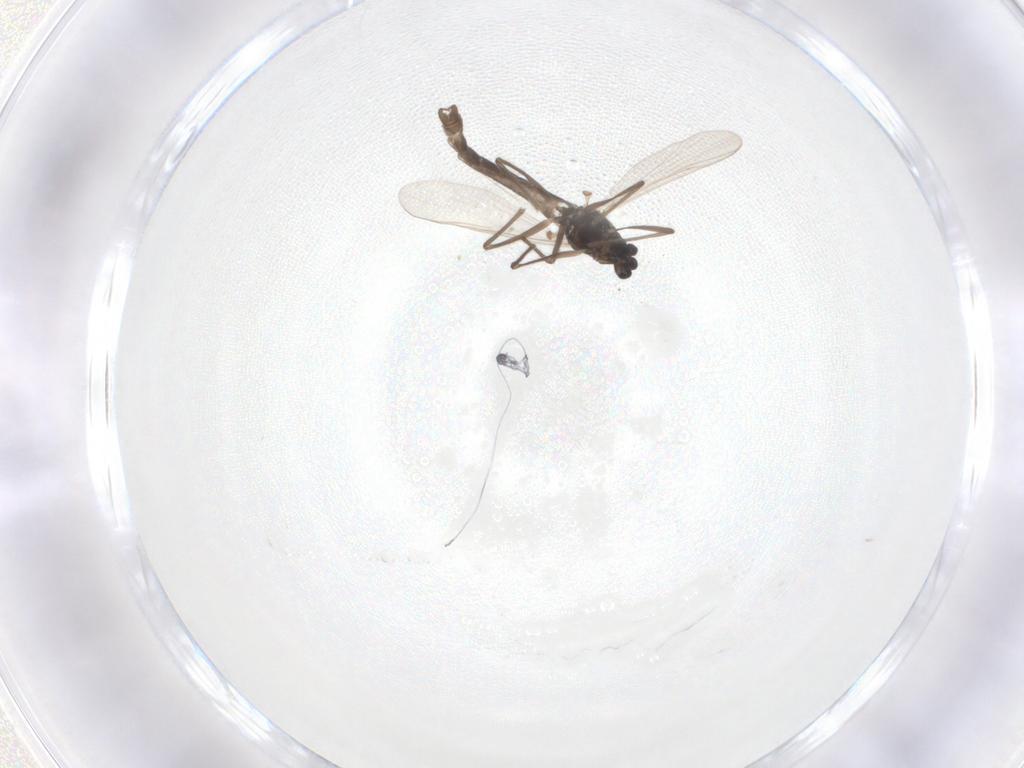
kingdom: Animalia
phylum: Arthropoda
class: Insecta
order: Diptera
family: Chironomidae
